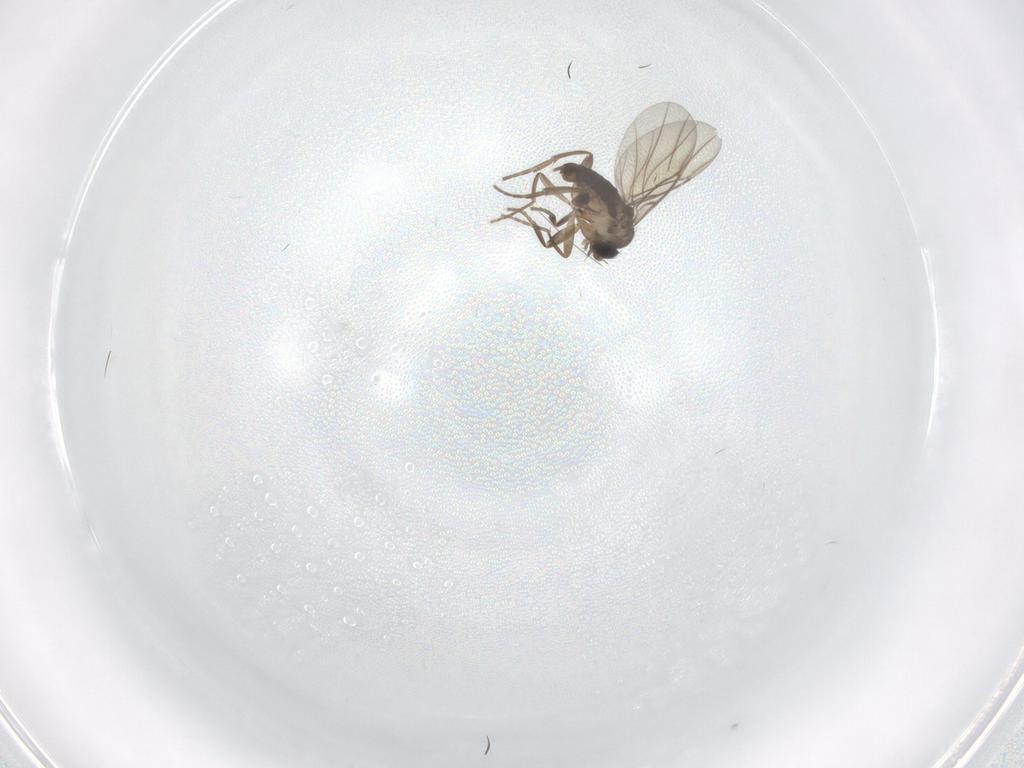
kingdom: Animalia
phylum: Arthropoda
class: Insecta
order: Diptera
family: Phoridae
